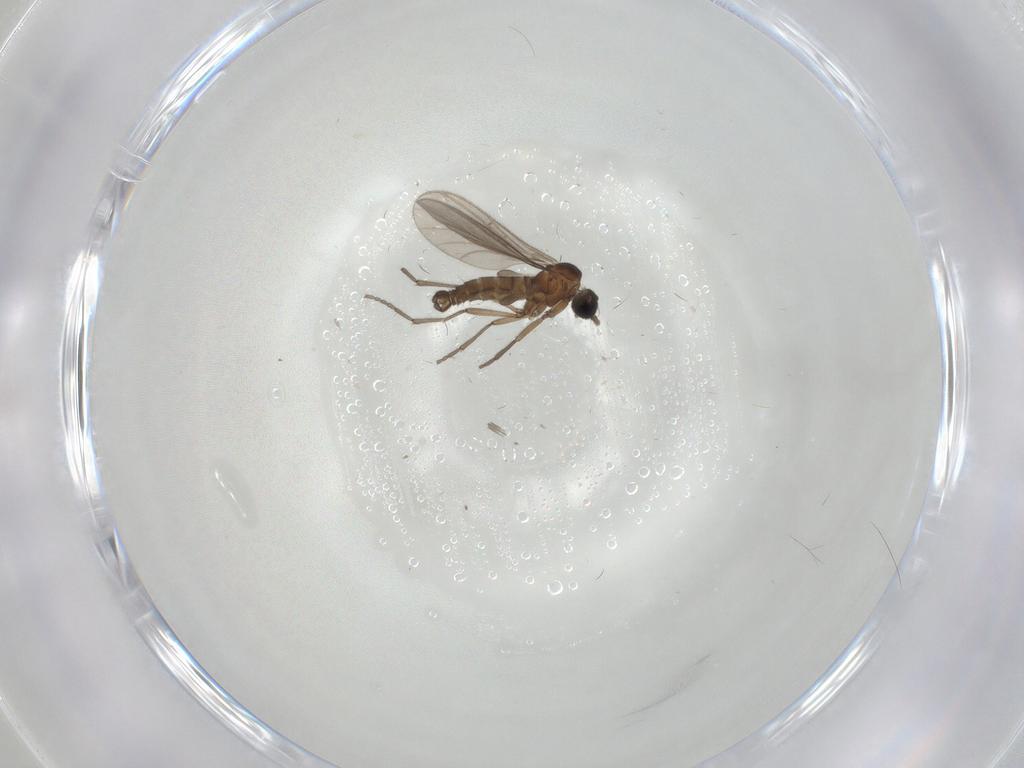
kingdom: Animalia
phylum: Arthropoda
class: Insecta
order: Diptera
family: Sciaridae
